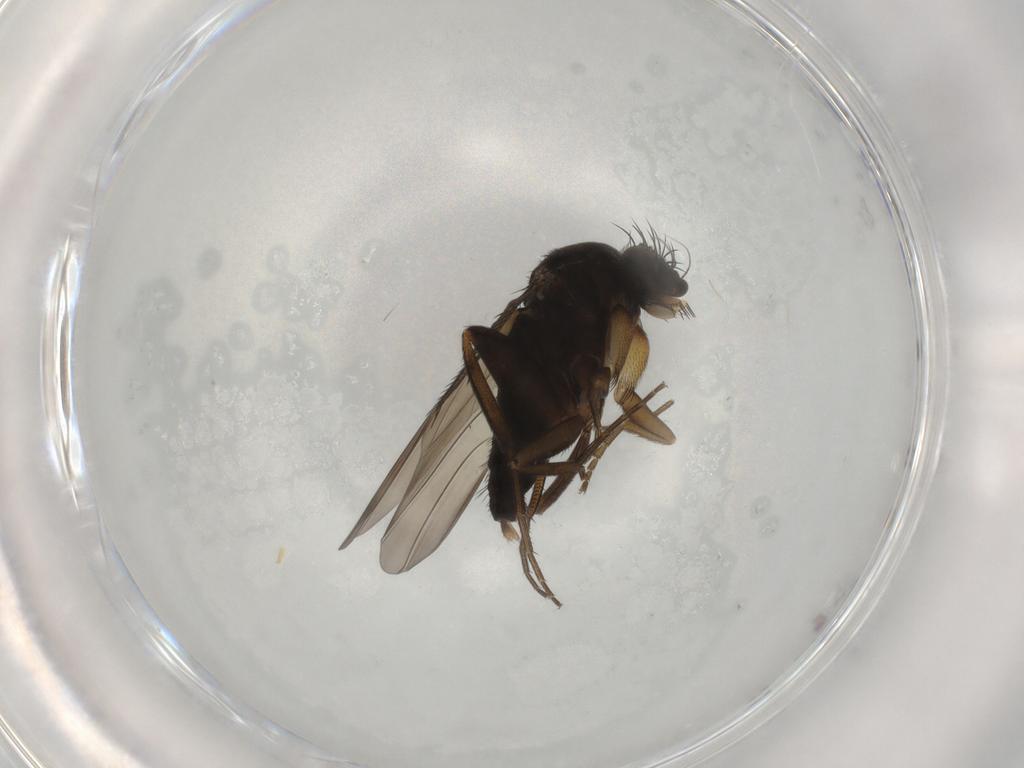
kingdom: Animalia
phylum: Arthropoda
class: Insecta
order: Diptera
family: Phoridae
